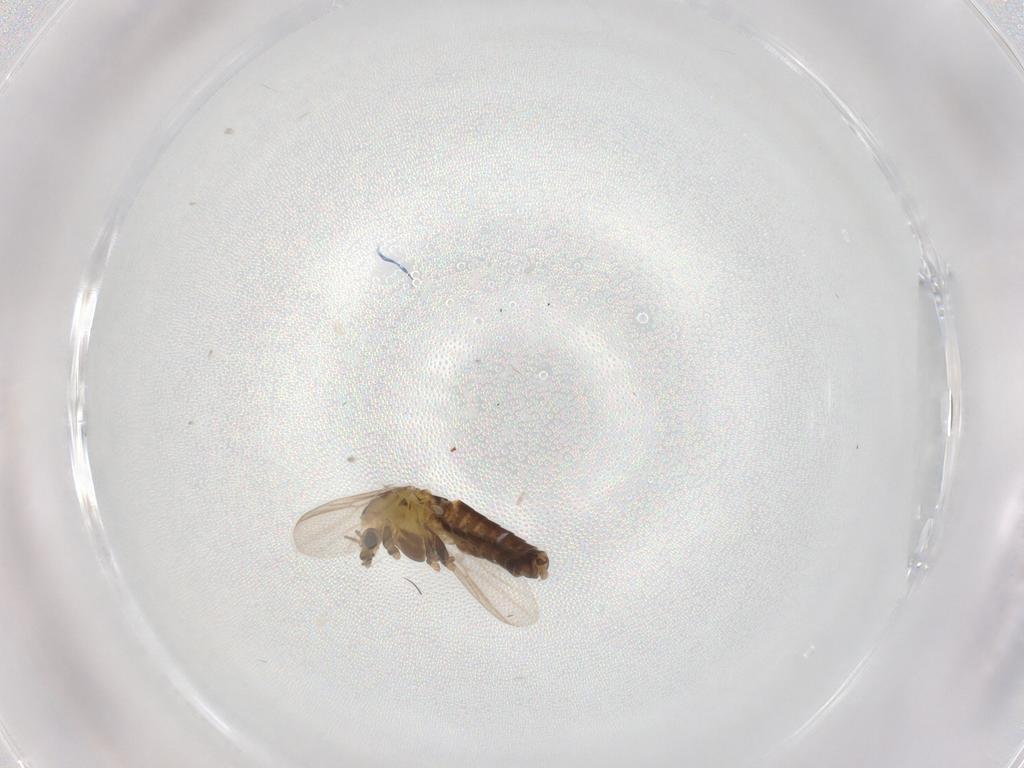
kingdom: Animalia
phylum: Arthropoda
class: Insecta
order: Diptera
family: Chironomidae
